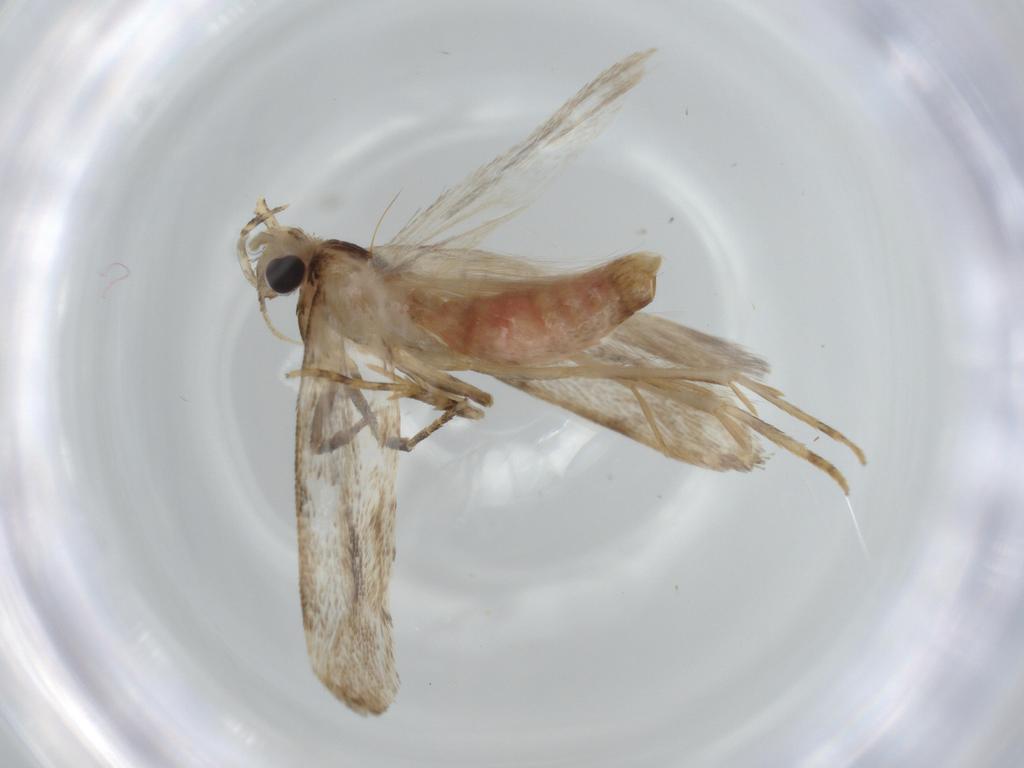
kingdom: Animalia
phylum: Arthropoda
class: Insecta
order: Lepidoptera
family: Autostichidae
